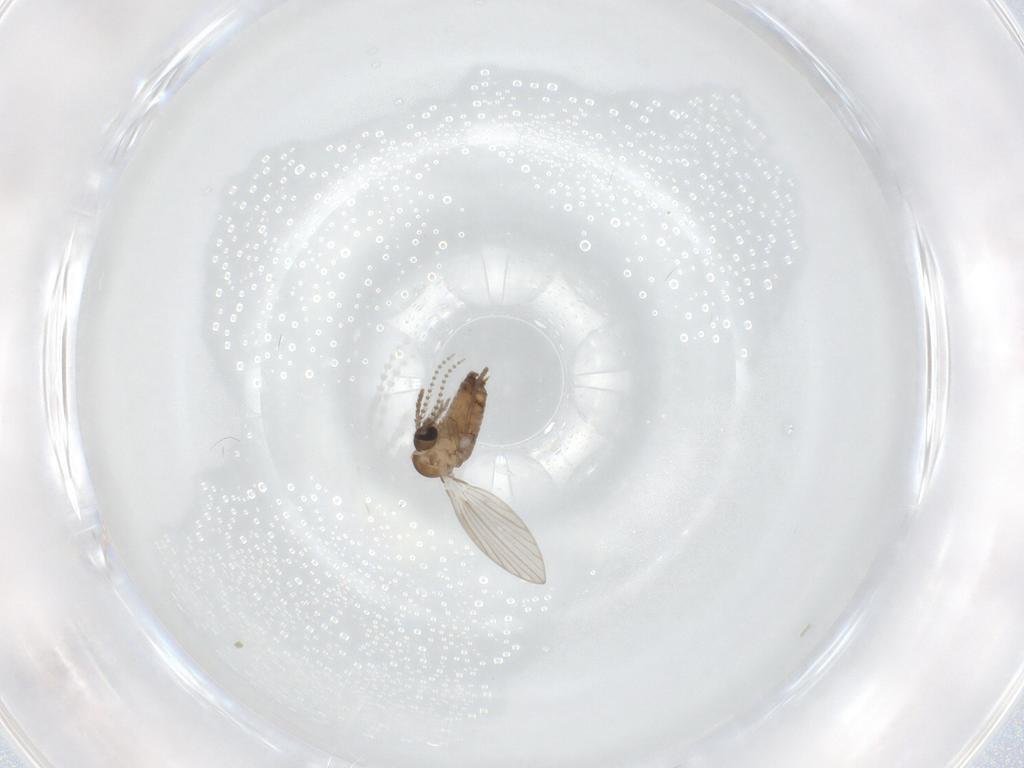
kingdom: Animalia
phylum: Arthropoda
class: Insecta
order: Diptera
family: Psychodidae
